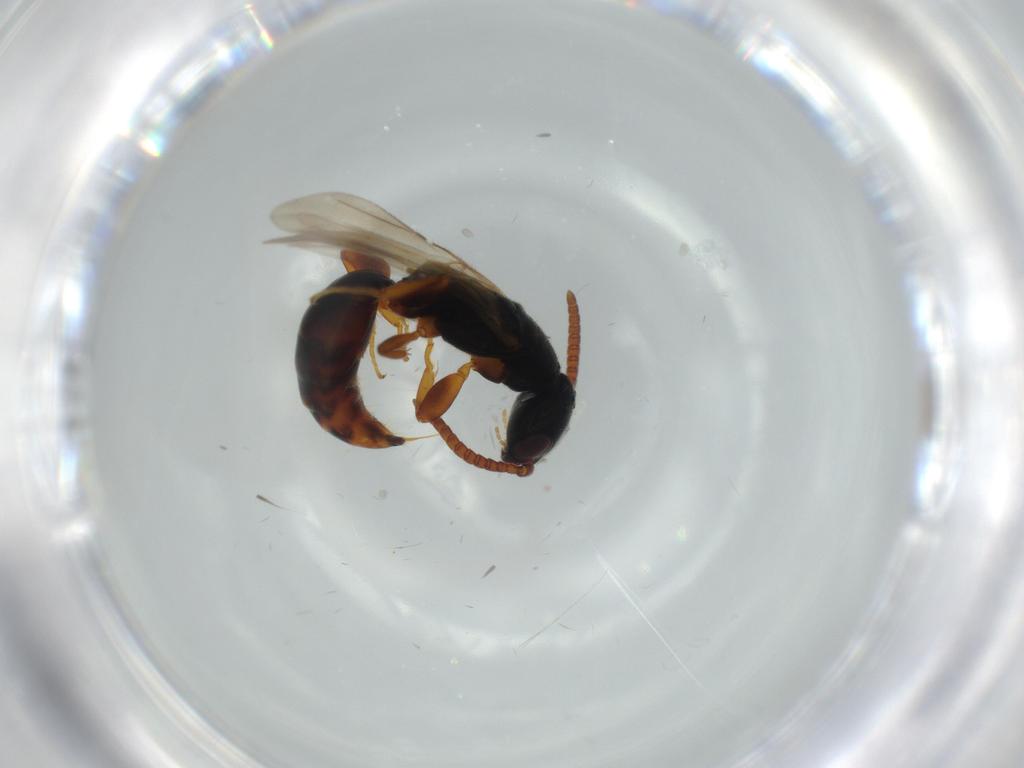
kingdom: Animalia
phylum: Arthropoda
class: Insecta
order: Hymenoptera
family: Bethylidae
